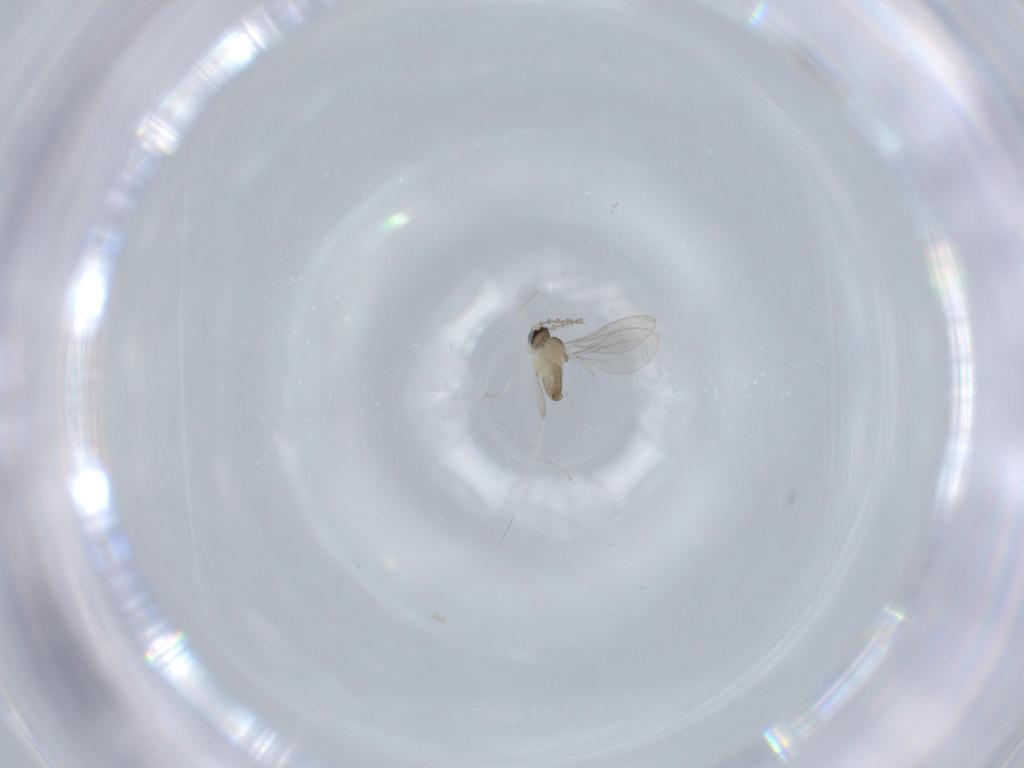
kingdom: Animalia
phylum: Arthropoda
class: Insecta
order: Diptera
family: Cecidomyiidae
